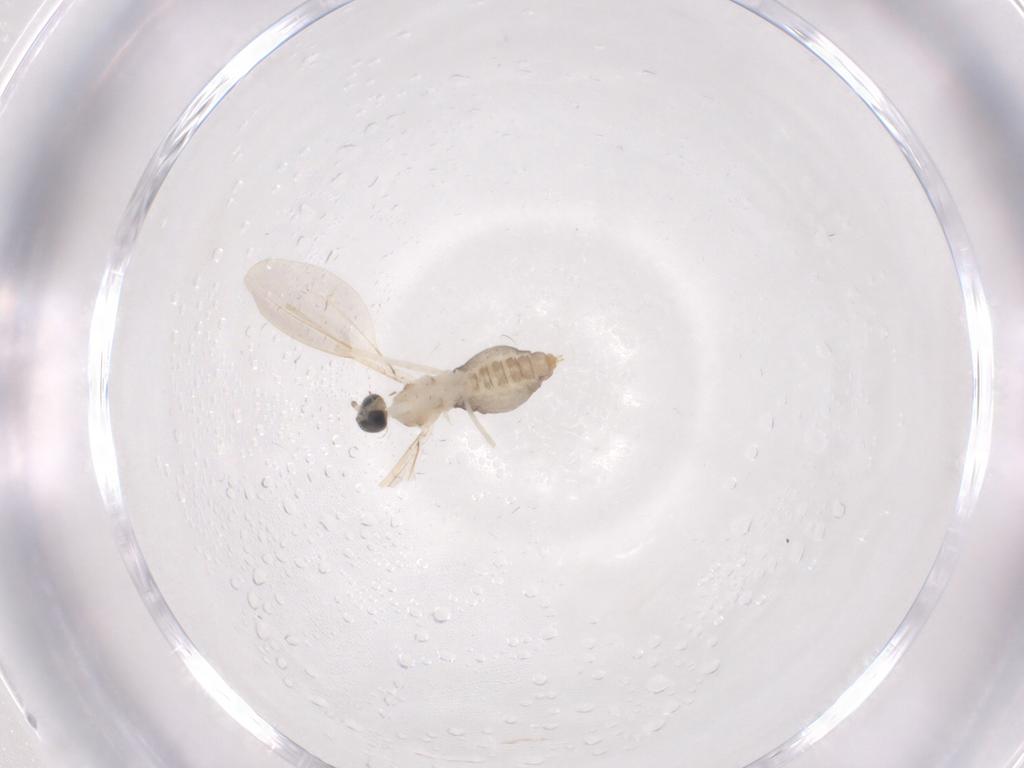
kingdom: Animalia
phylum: Arthropoda
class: Insecta
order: Diptera
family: Cecidomyiidae
